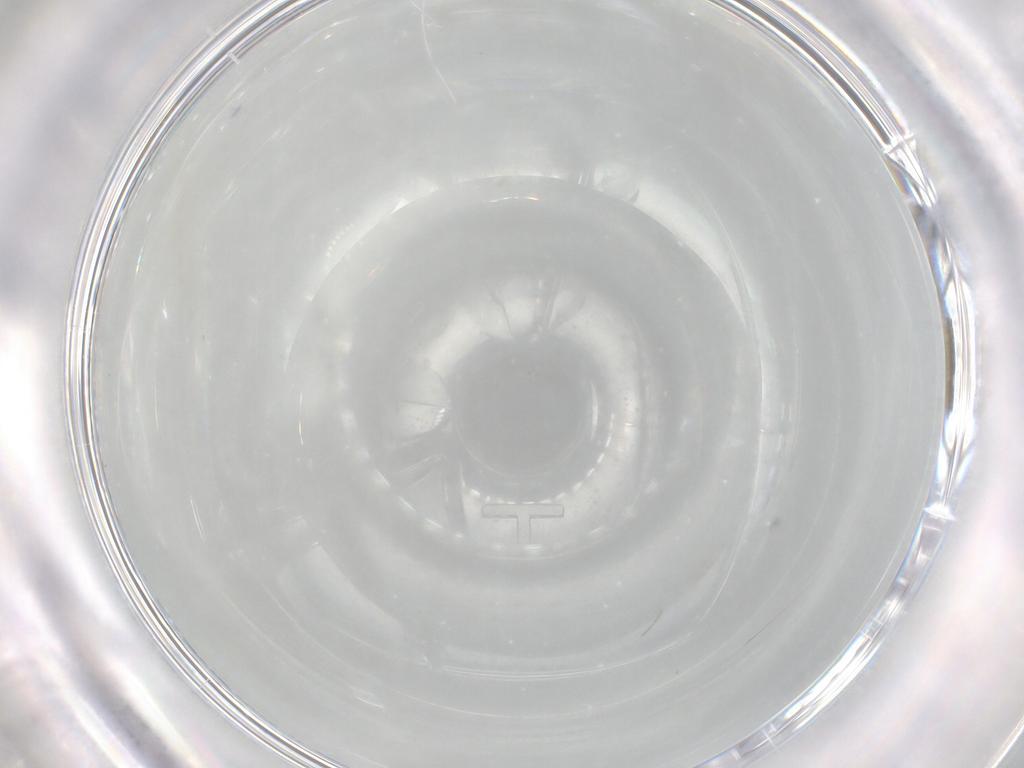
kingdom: Animalia
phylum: Arthropoda
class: Insecta
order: Diptera
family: Cecidomyiidae
